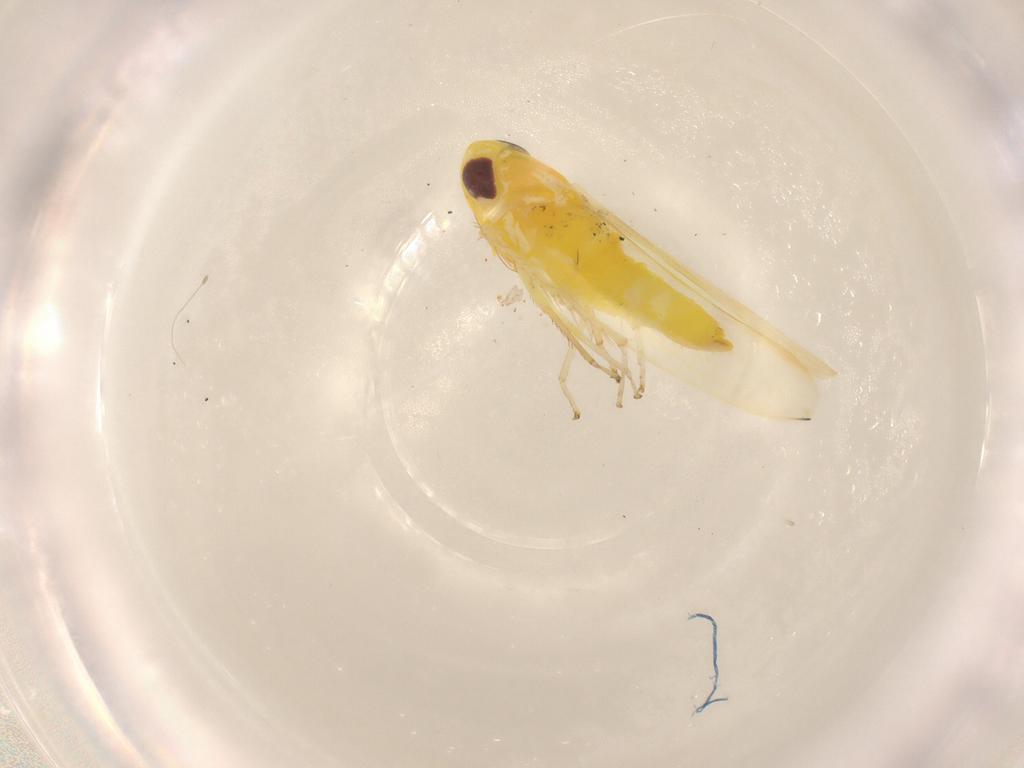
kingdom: Animalia
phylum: Arthropoda
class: Insecta
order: Hemiptera
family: Cicadellidae
